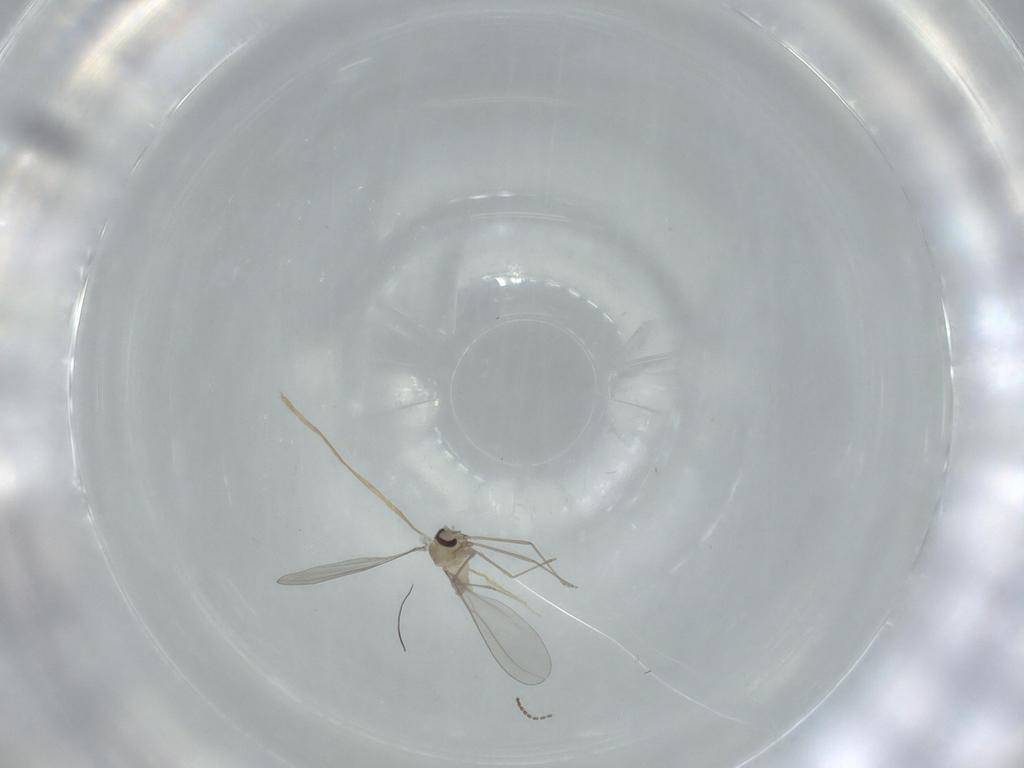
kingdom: Animalia
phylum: Arthropoda
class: Insecta
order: Diptera
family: Cecidomyiidae
